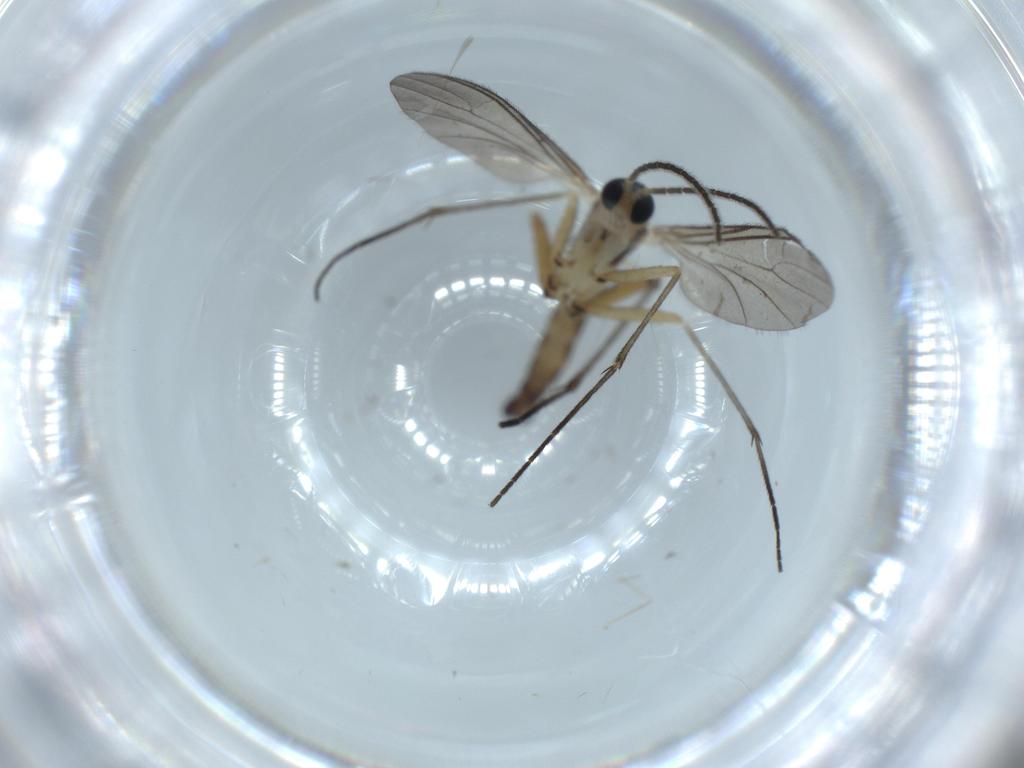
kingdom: Animalia
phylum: Arthropoda
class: Insecta
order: Diptera
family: Sciaridae
